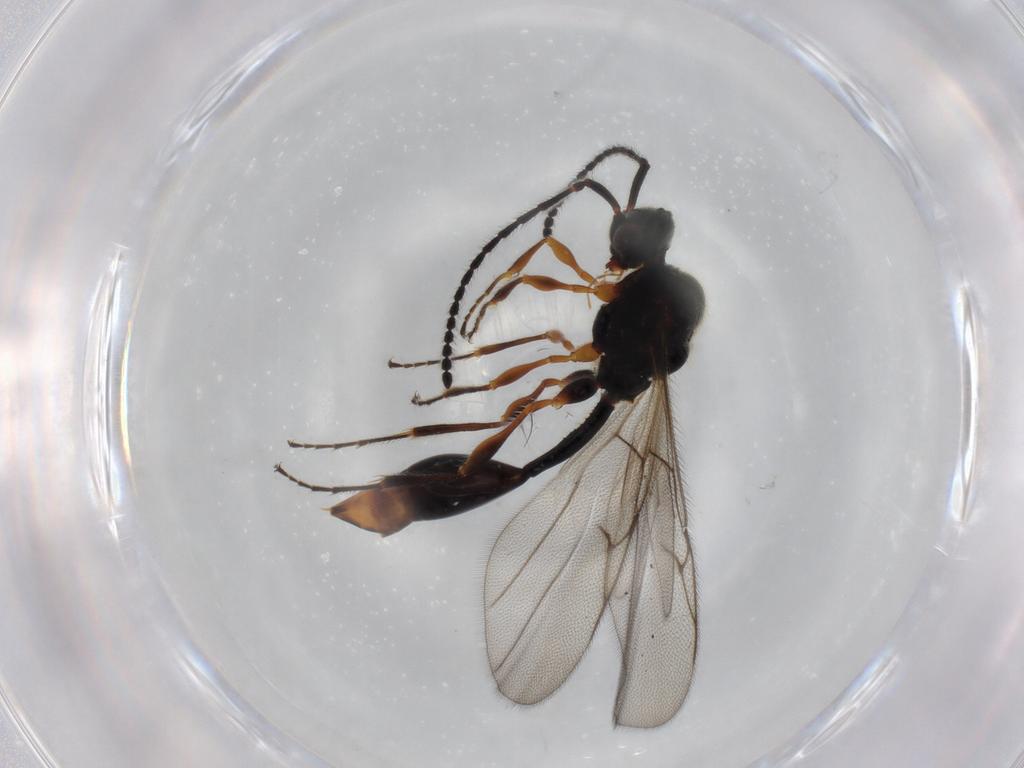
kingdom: Animalia
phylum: Arthropoda
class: Insecta
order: Hymenoptera
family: Diapriidae
